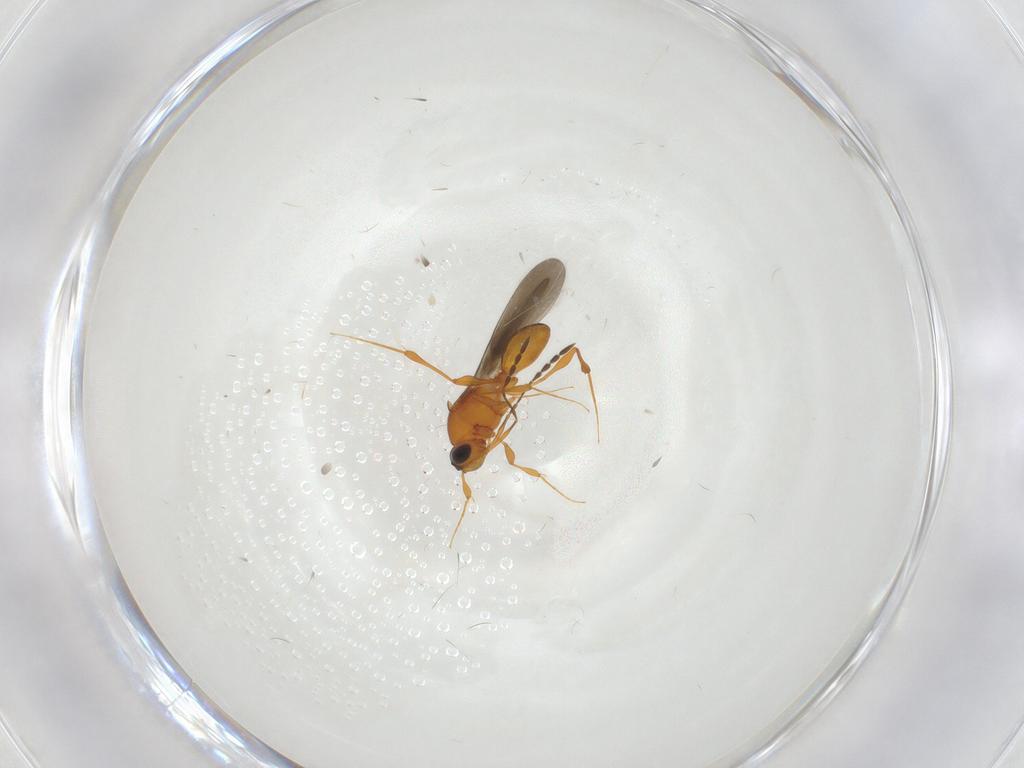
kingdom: Animalia
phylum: Arthropoda
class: Insecta
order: Hymenoptera
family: Platygastridae
